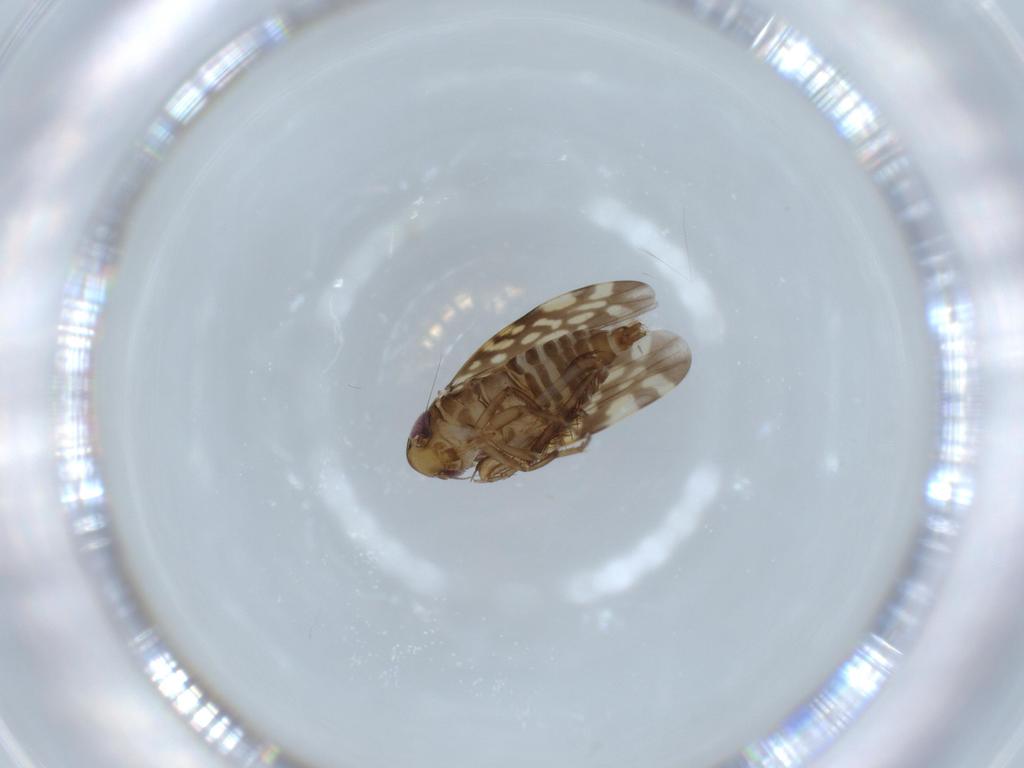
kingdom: Animalia
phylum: Arthropoda
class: Insecta
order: Hemiptera
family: Cicadellidae
